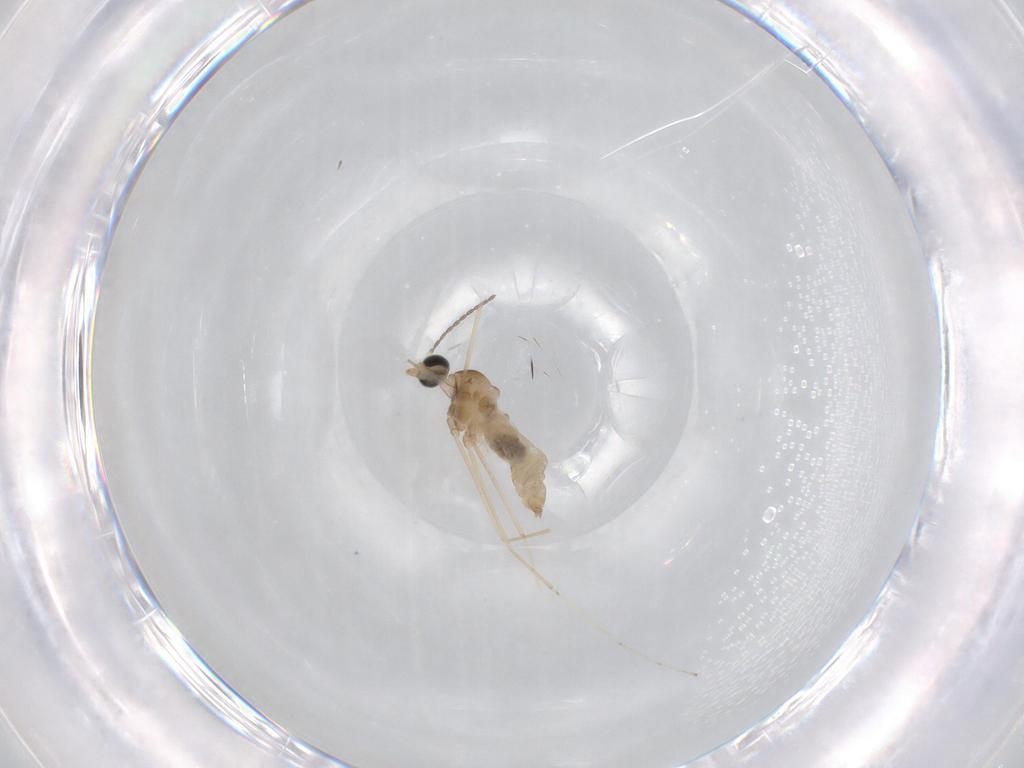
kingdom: Animalia
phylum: Arthropoda
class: Insecta
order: Diptera
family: Cecidomyiidae
